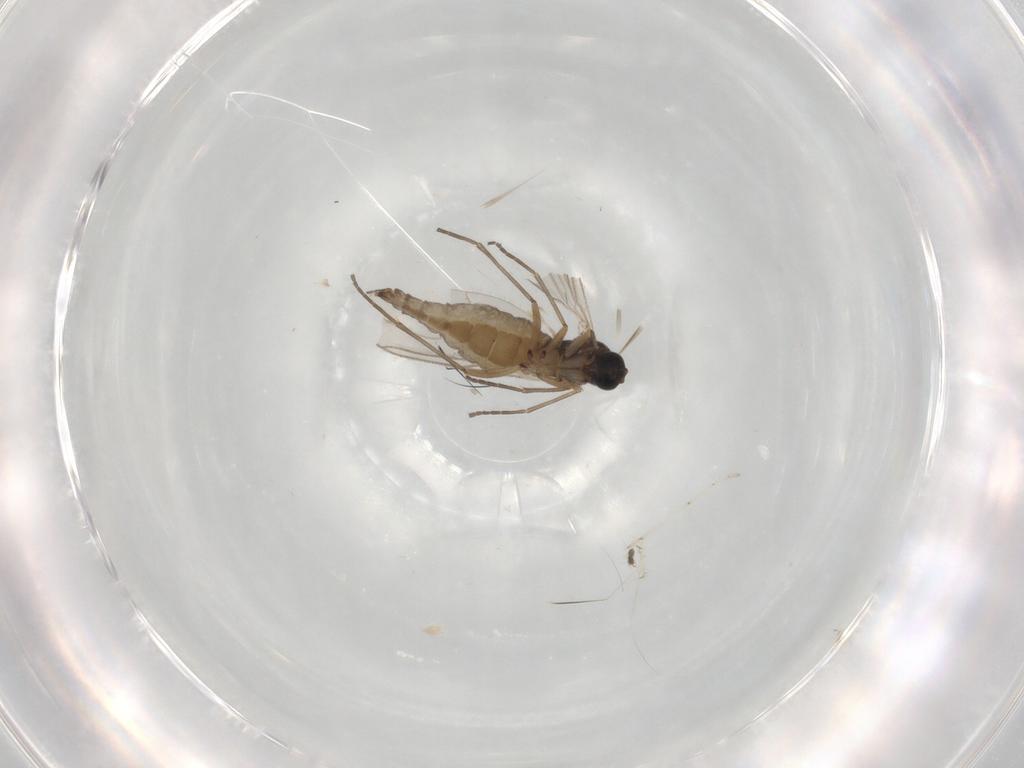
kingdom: Animalia
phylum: Arthropoda
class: Insecta
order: Diptera
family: Sciaridae
